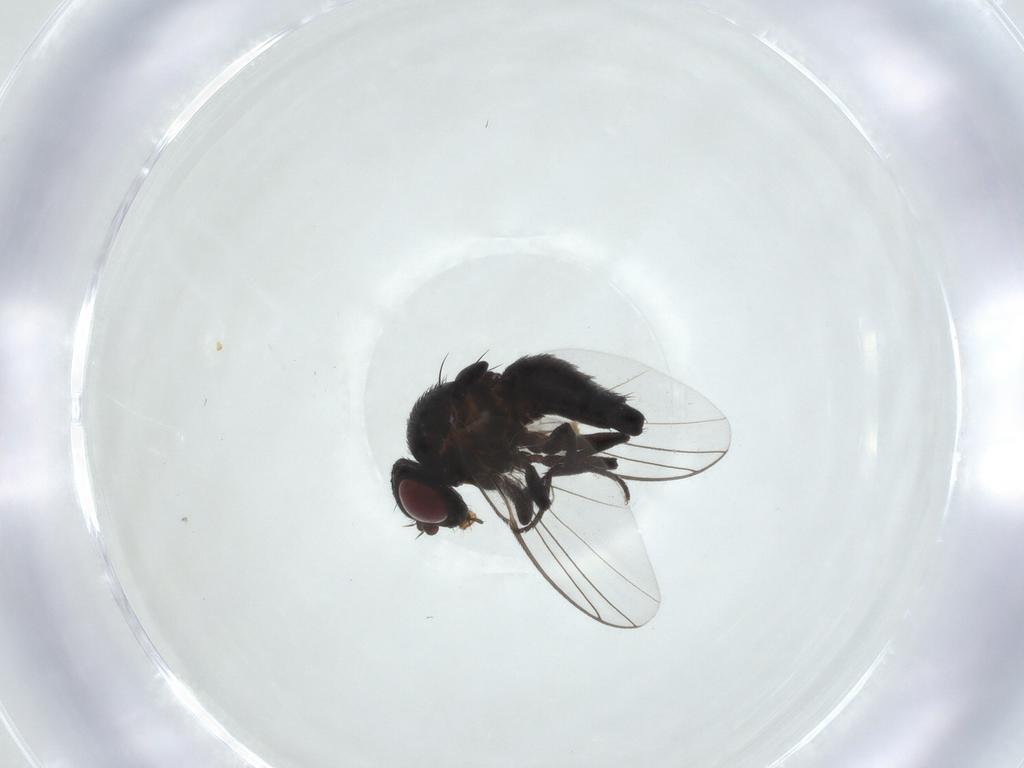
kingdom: Animalia
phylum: Arthropoda
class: Insecta
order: Diptera
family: Agromyzidae
